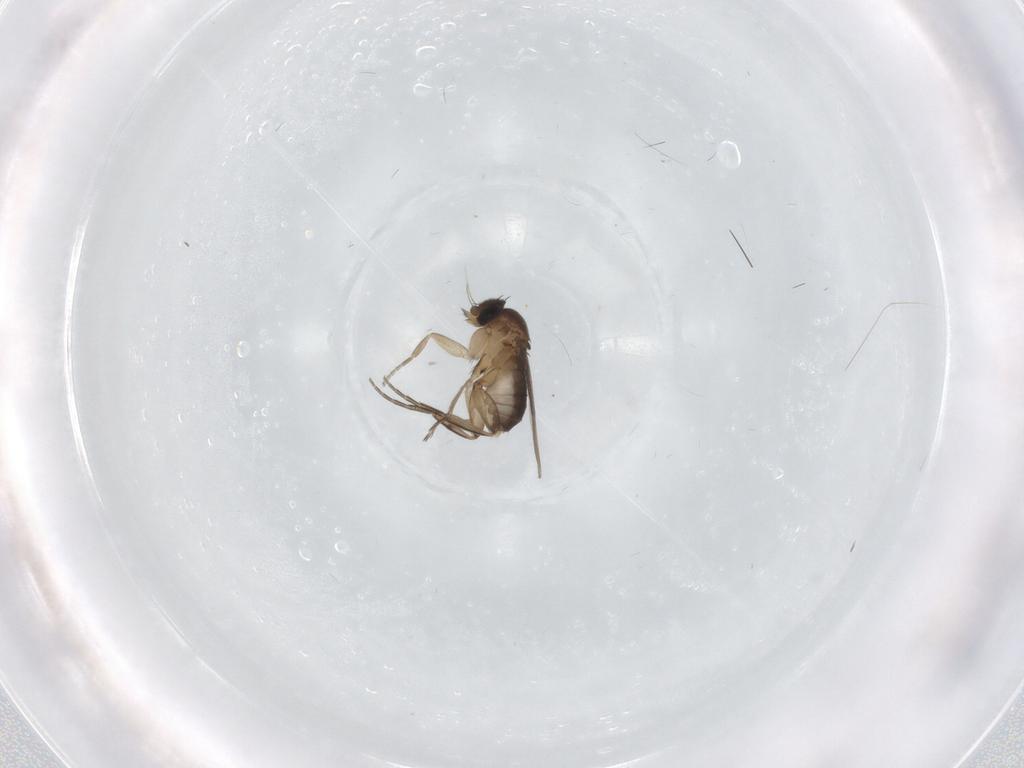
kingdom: Animalia
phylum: Arthropoda
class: Insecta
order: Diptera
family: Phoridae
